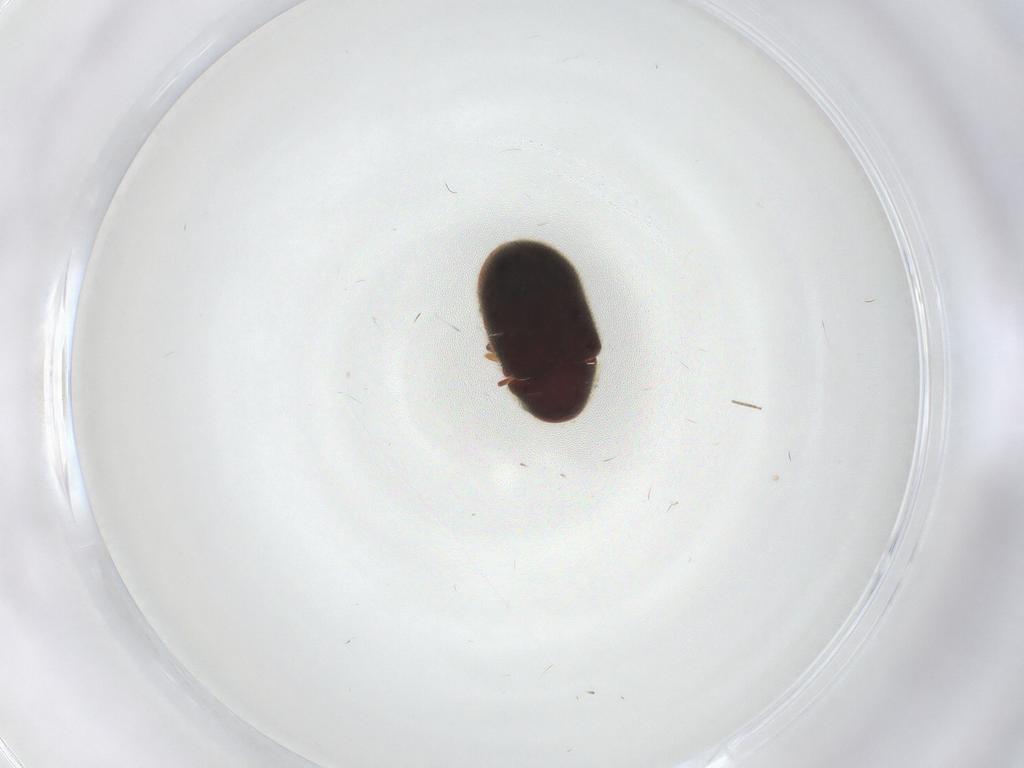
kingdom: Animalia
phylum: Arthropoda
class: Insecta
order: Coleoptera
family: Ptinidae
